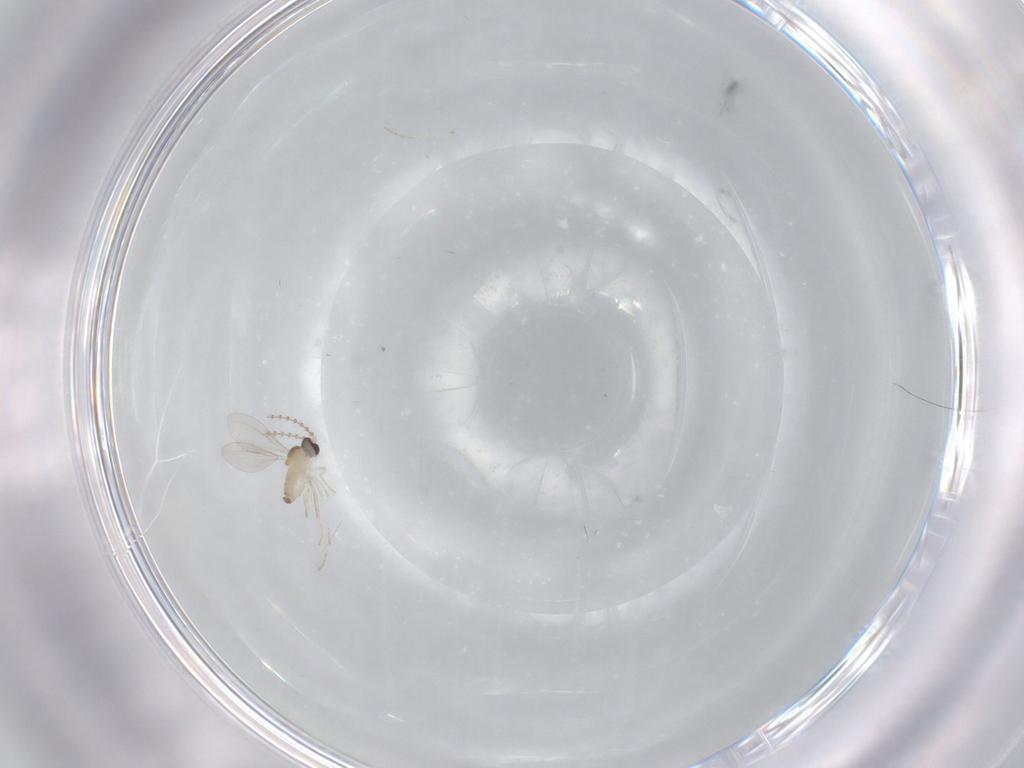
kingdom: Animalia
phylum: Arthropoda
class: Insecta
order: Diptera
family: Cecidomyiidae
